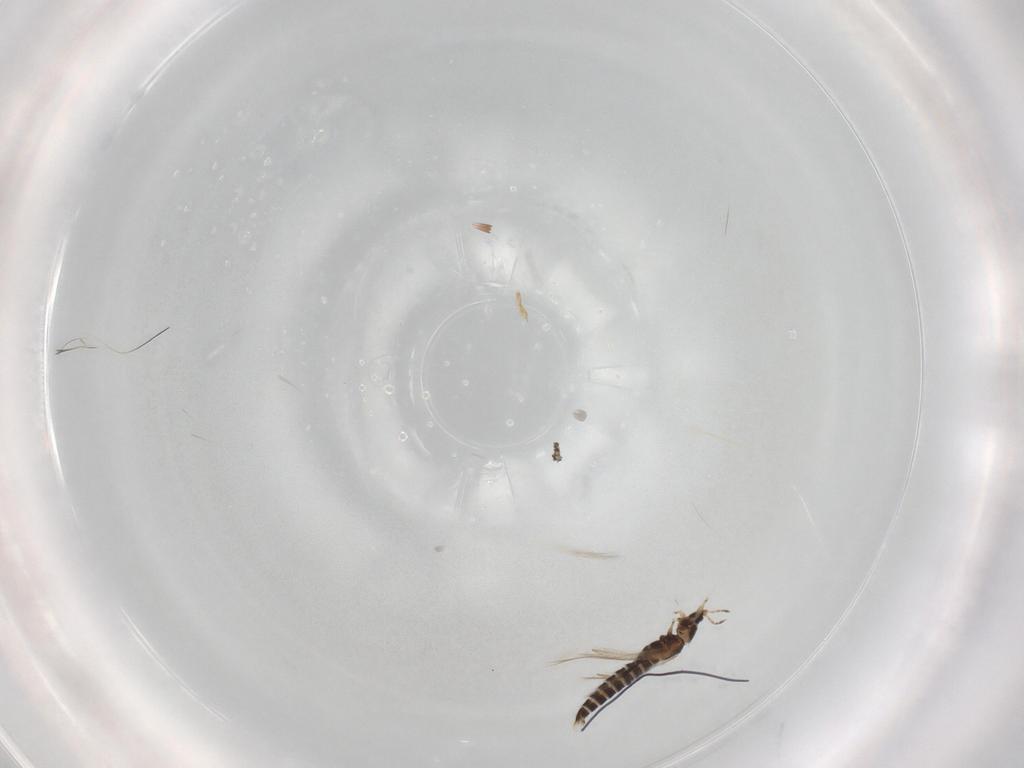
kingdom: Animalia
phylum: Arthropoda
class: Insecta
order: Thysanoptera
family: Thripidae
